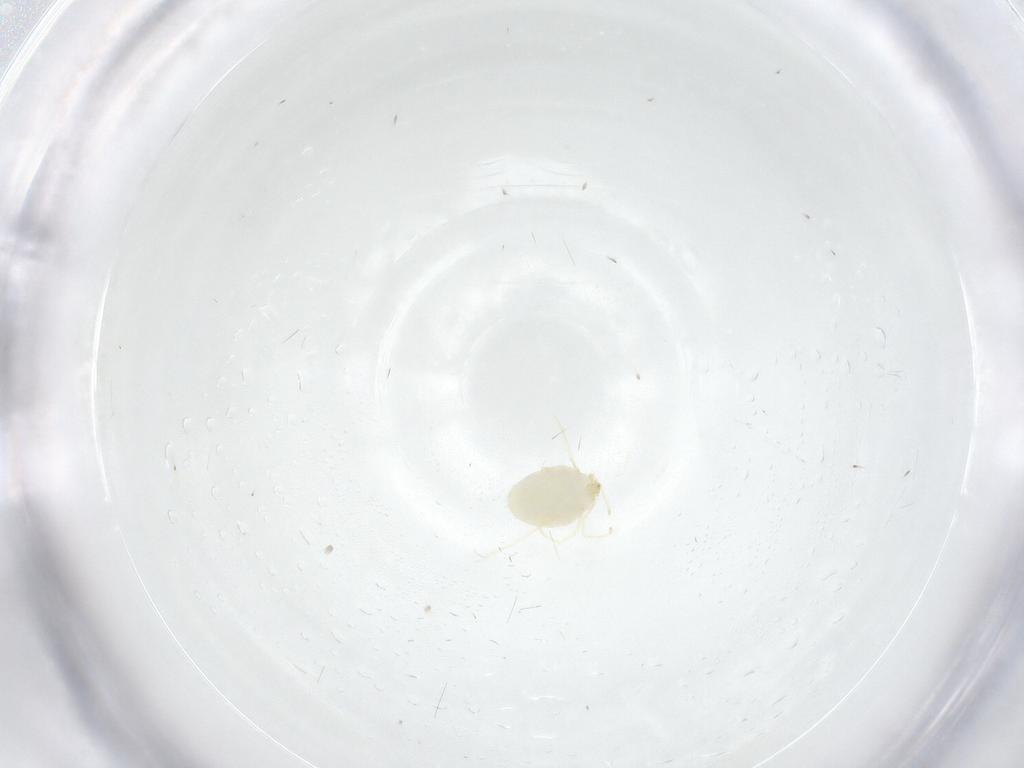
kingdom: Animalia
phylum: Arthropoda
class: Arachnida
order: Trombidiformes
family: Erythraeidae
